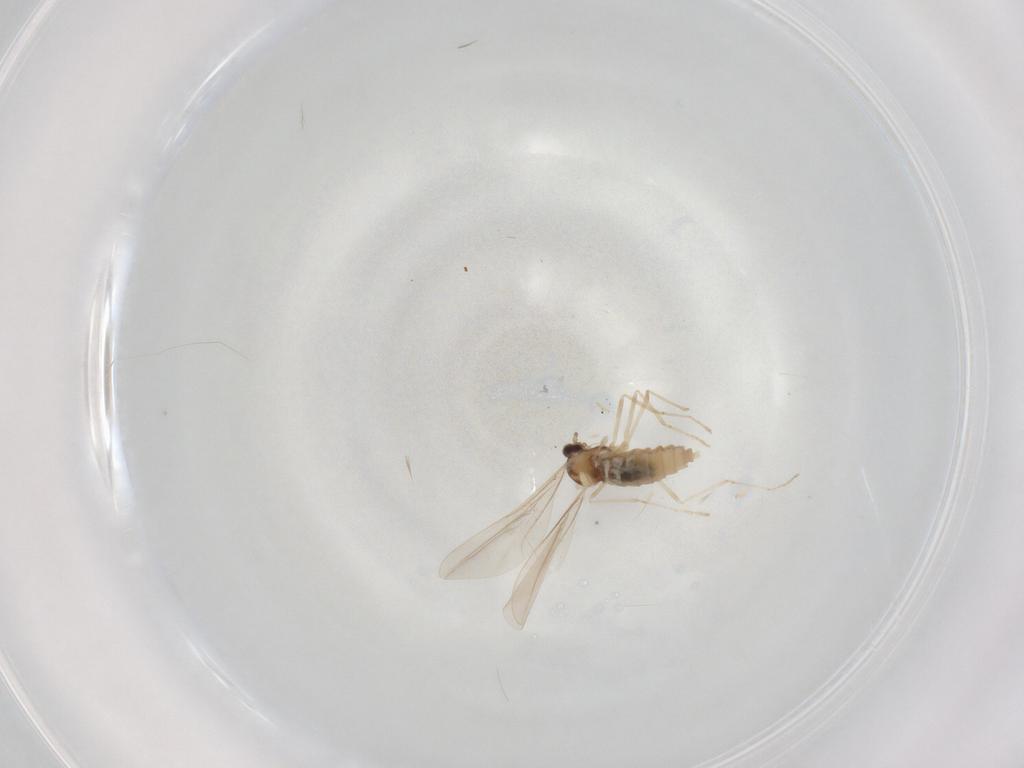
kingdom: Animalia
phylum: Arthropoda
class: Insecta
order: Diptera
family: Cecidomyiidae
